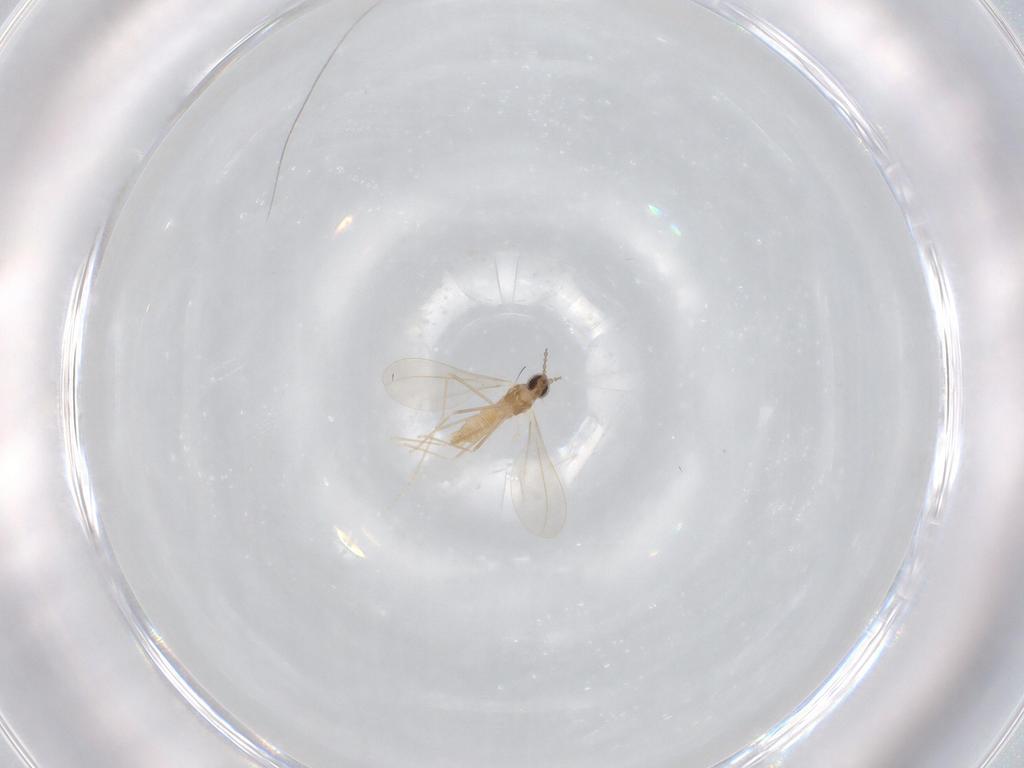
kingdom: Animalia
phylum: Arthropoda
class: Insecta
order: Diptera
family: Cecidomyiidae
